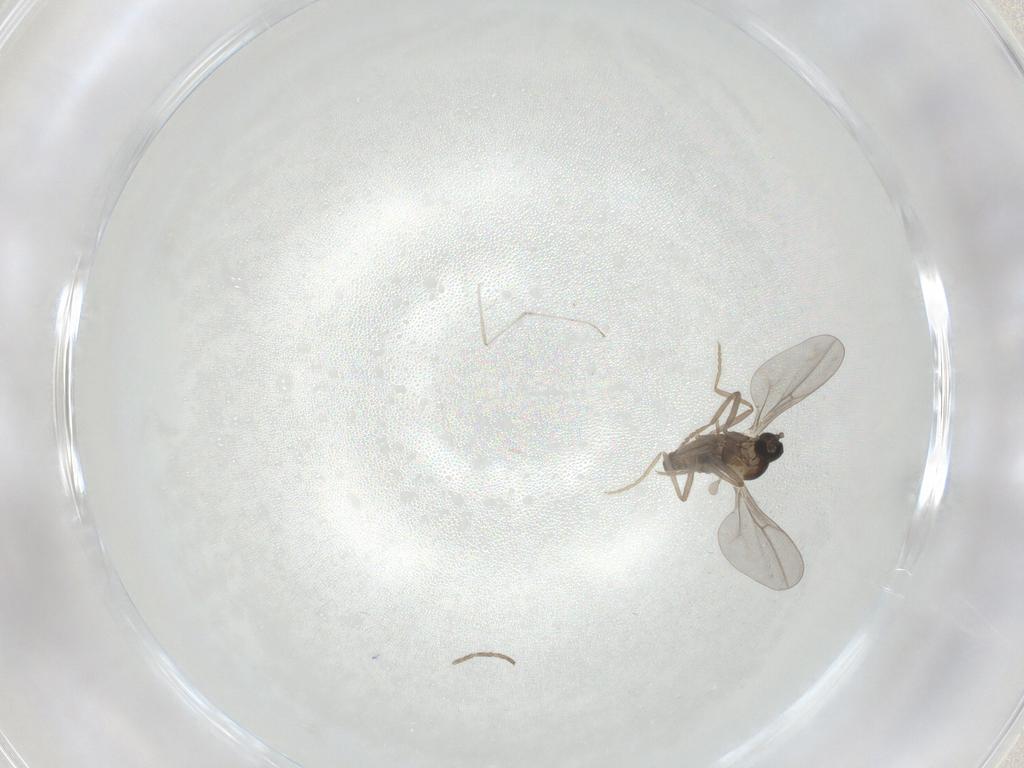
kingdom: Animalia
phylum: Arthropoda
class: Insecta
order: Diptera
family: Cecidomyiidae
